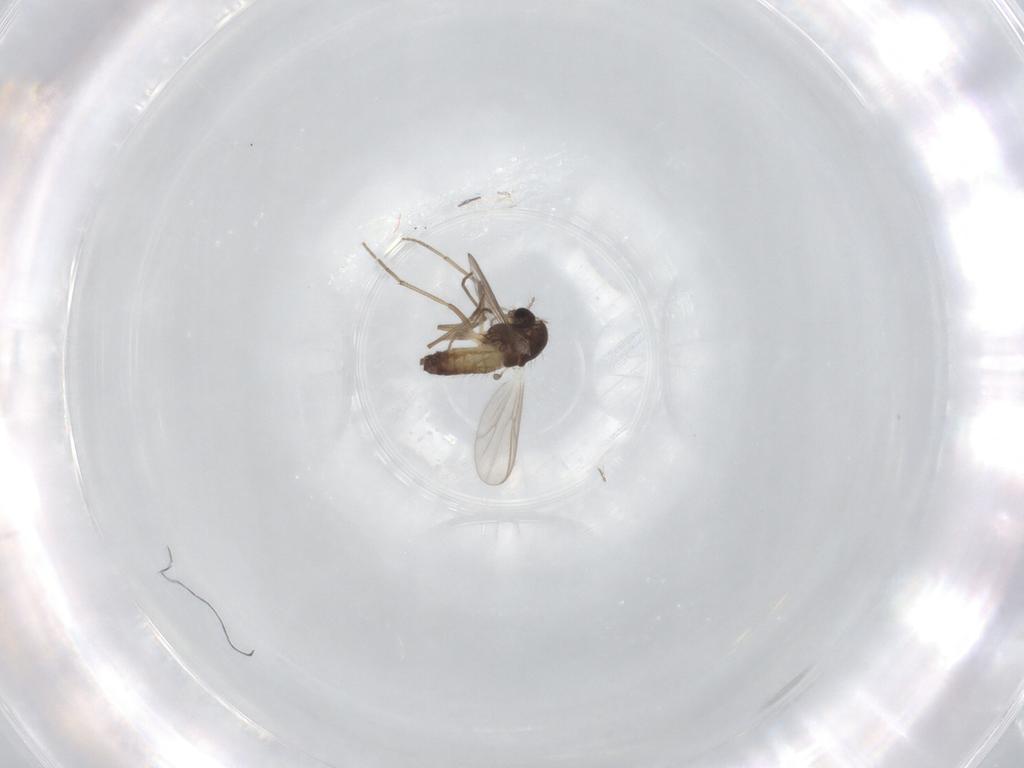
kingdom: Animalia
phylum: Arthropoda
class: Insecta
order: Diptera
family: Chironomidae
